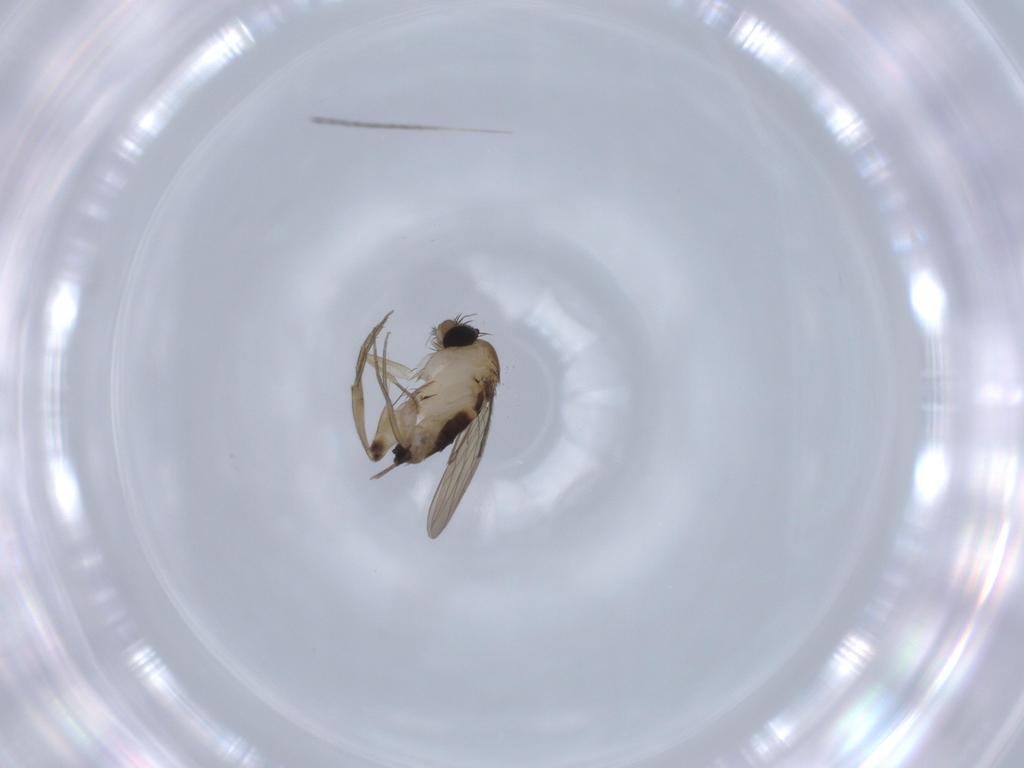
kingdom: Animalia
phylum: Arthropoda
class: Insecta
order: Diptera
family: Phoridae
